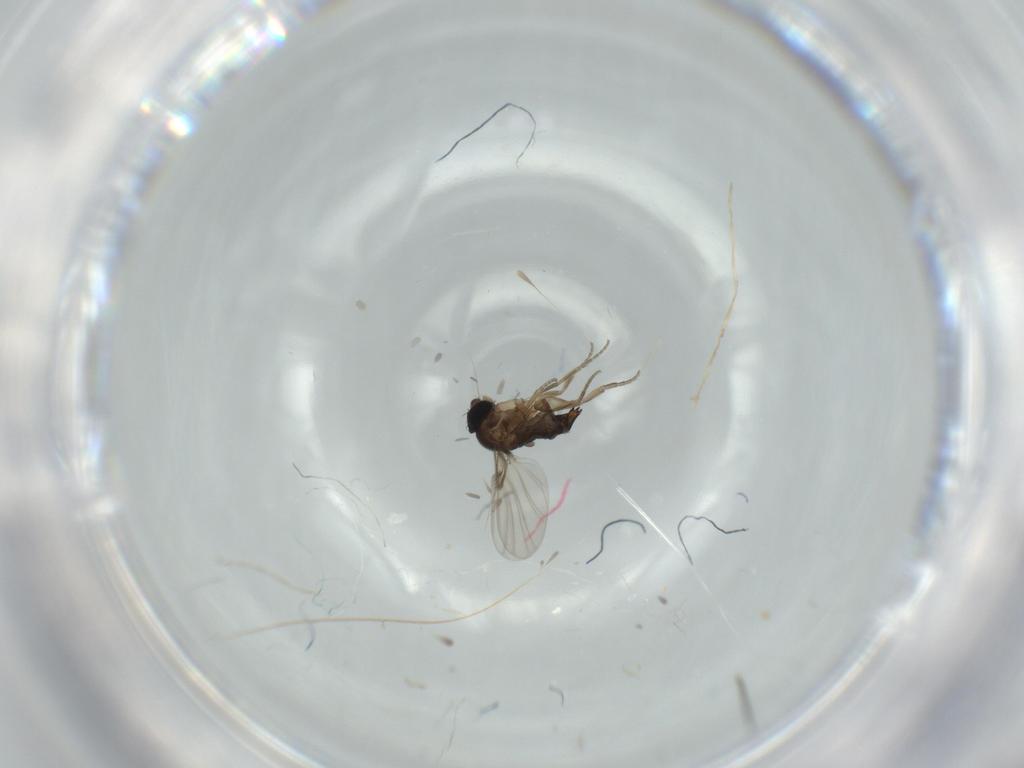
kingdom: Animalia
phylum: Arthropoda
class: Insecta
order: Diptera
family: Phoridae
